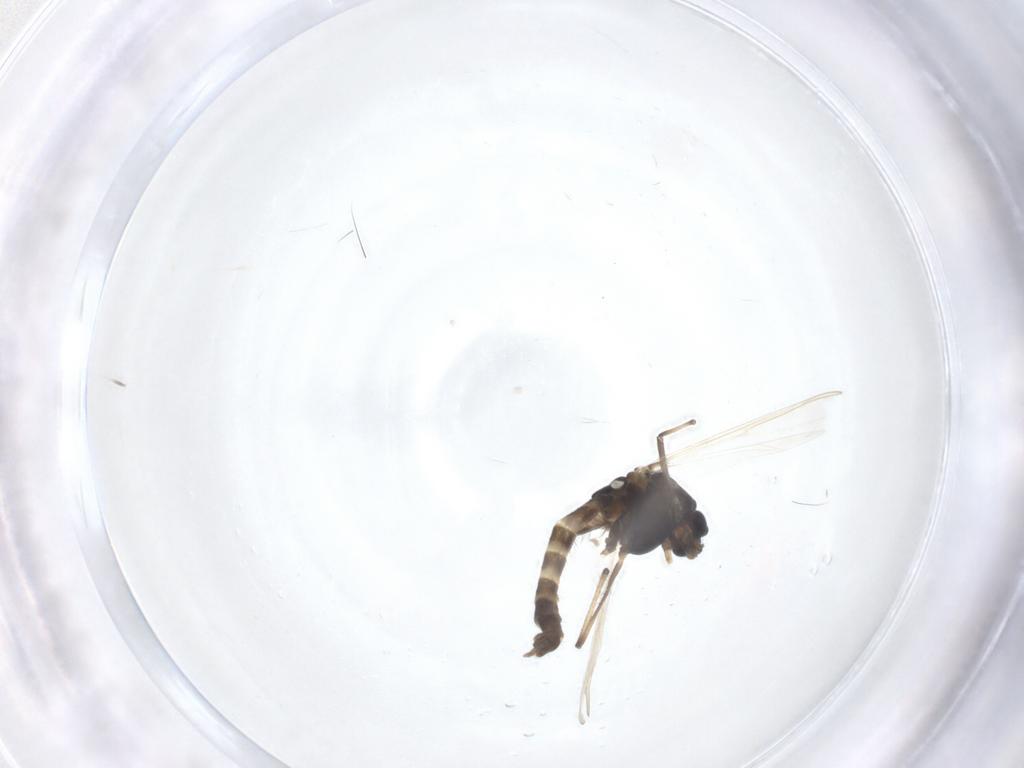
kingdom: Animalia
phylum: Arthropoda
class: Insecta
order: Diptera
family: Chironomidae
